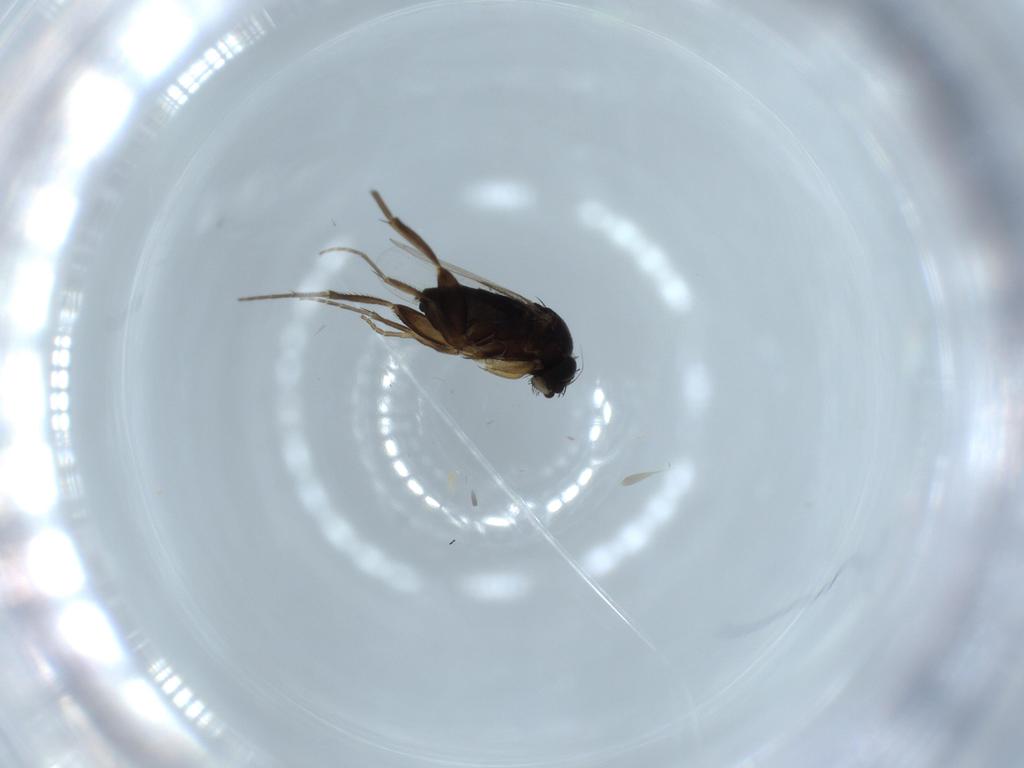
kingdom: Animalia
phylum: Arthropoda
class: Insecta
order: Diptera
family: Phoridae
